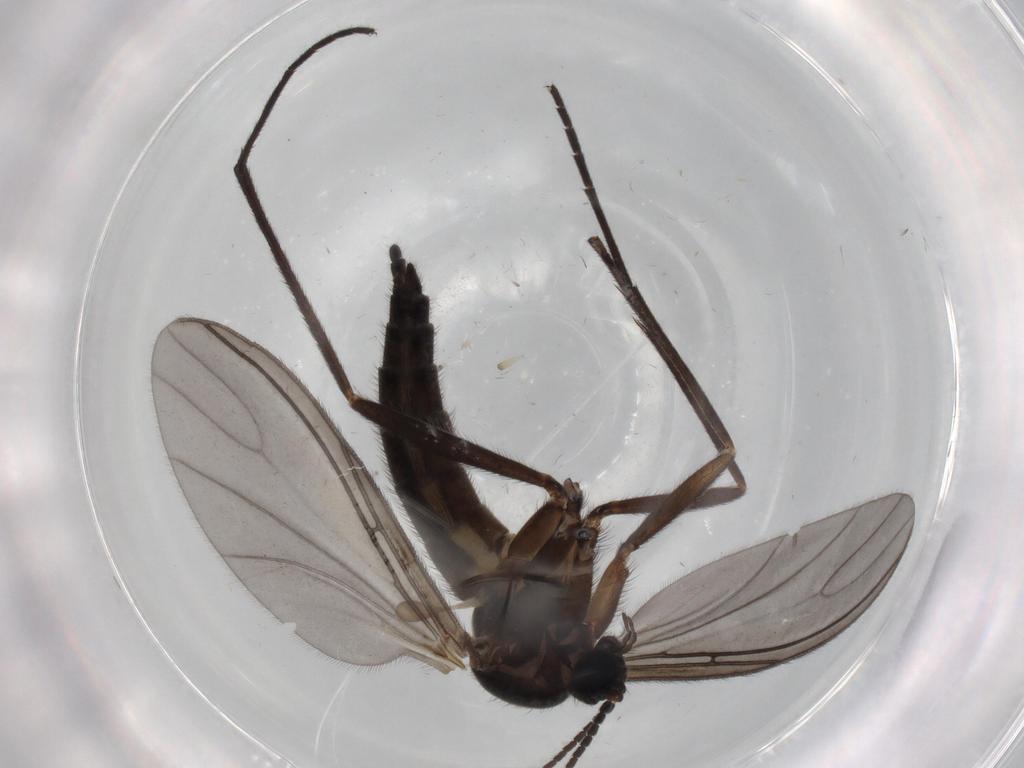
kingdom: Animalia
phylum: Arthropoda
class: Insecta
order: Diptera
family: Sciaridae
